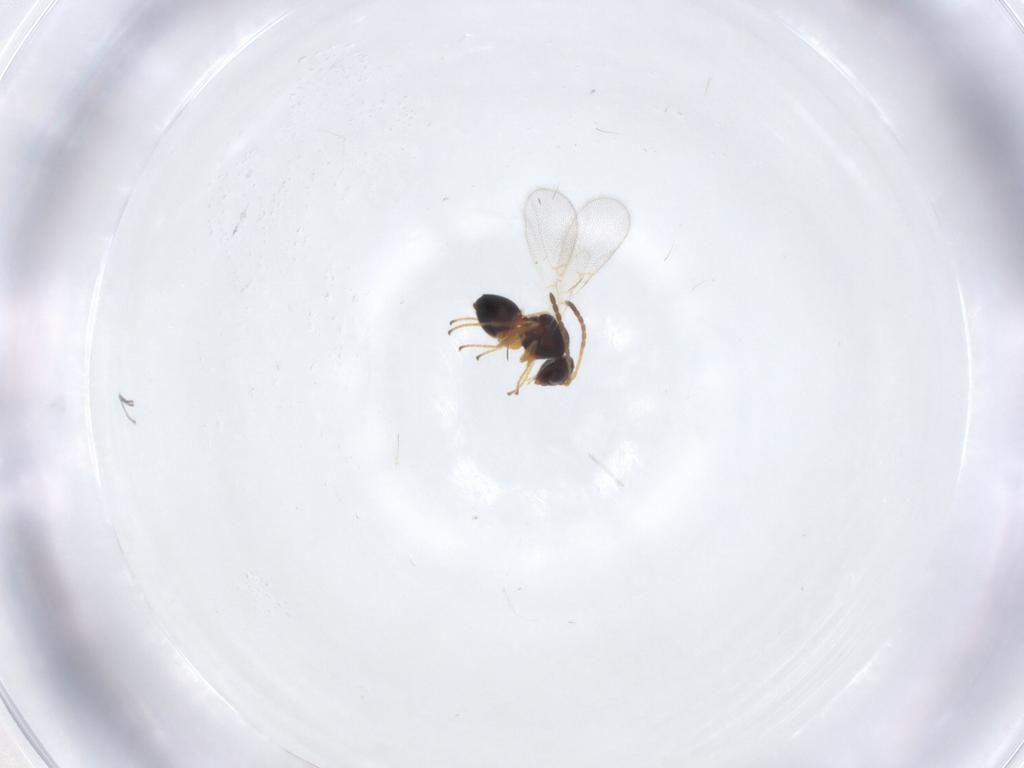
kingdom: Animalia
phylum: Arthropoda
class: Insecta
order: Hymenoptera
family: Figitidae
